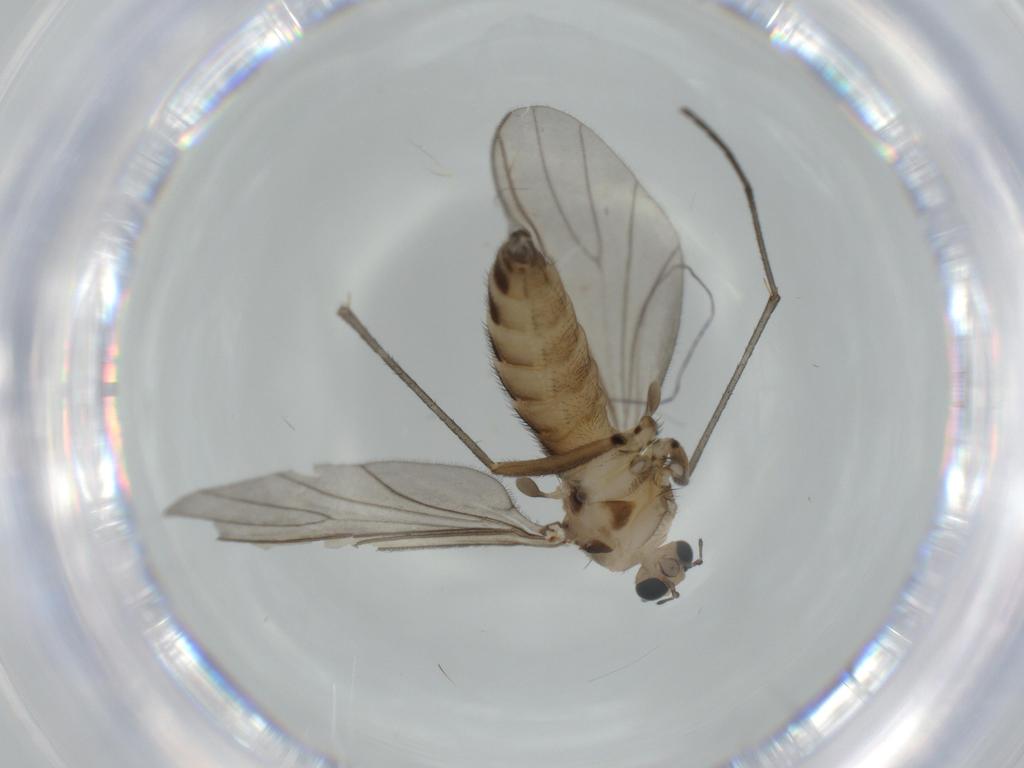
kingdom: Animalia
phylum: Arthropoda
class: Insecta
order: Diptera
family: Sciaridae
